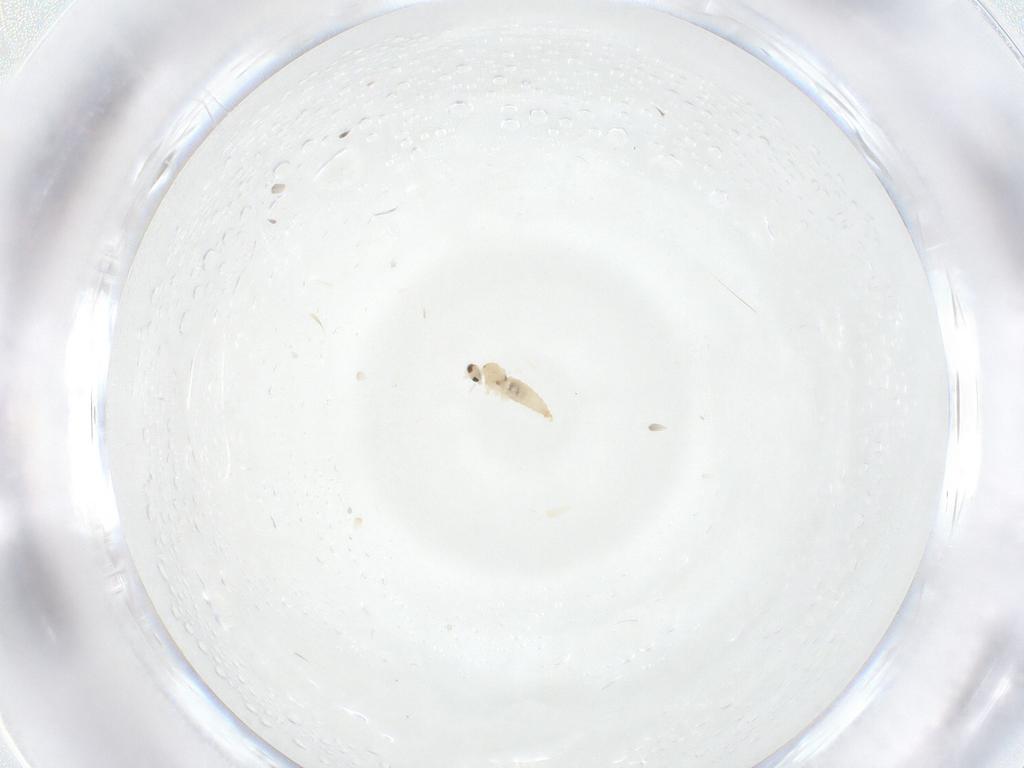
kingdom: Animalia
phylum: Arthropoda
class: Insecta
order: Diptera
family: Cecidomyiidae
